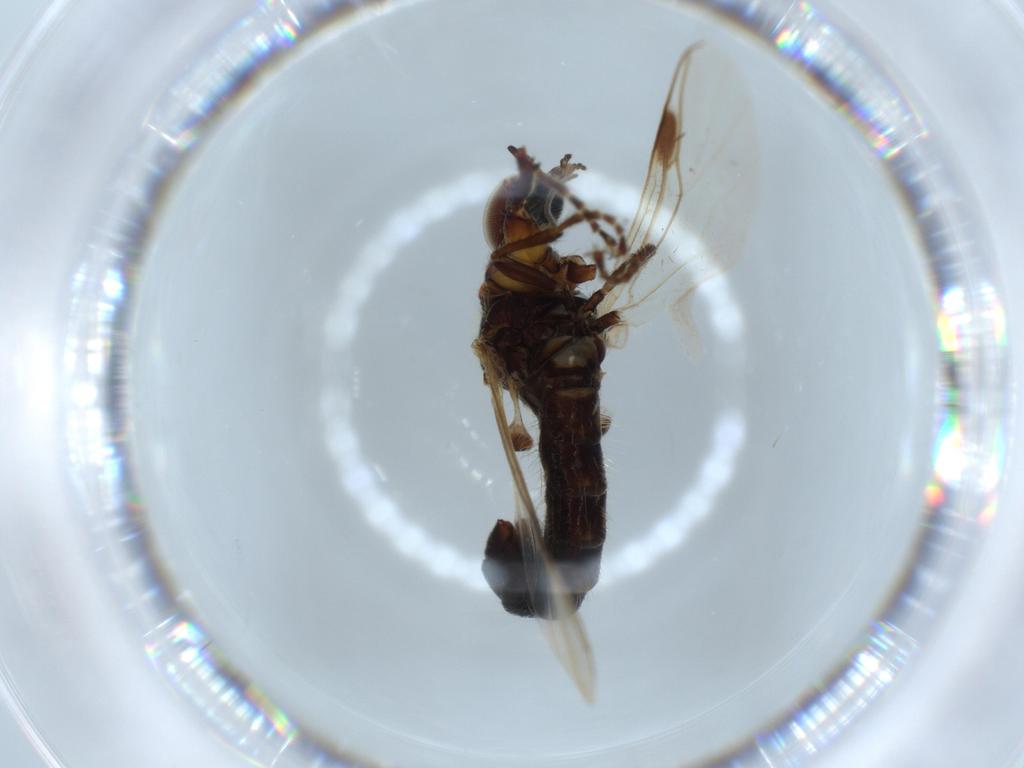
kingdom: Animalia
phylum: Arthropoda
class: Insecta
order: Diptera
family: Bibionidae
